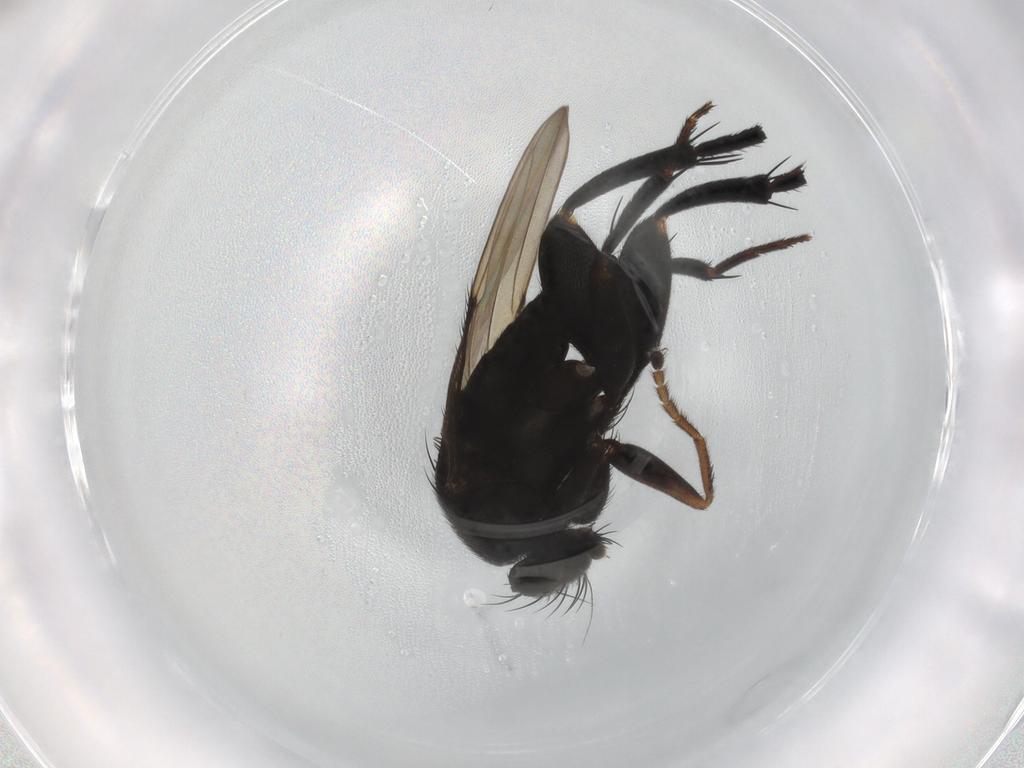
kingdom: Animalia
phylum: Arthropoda
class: Insecta
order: Diptera
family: Phoridae
